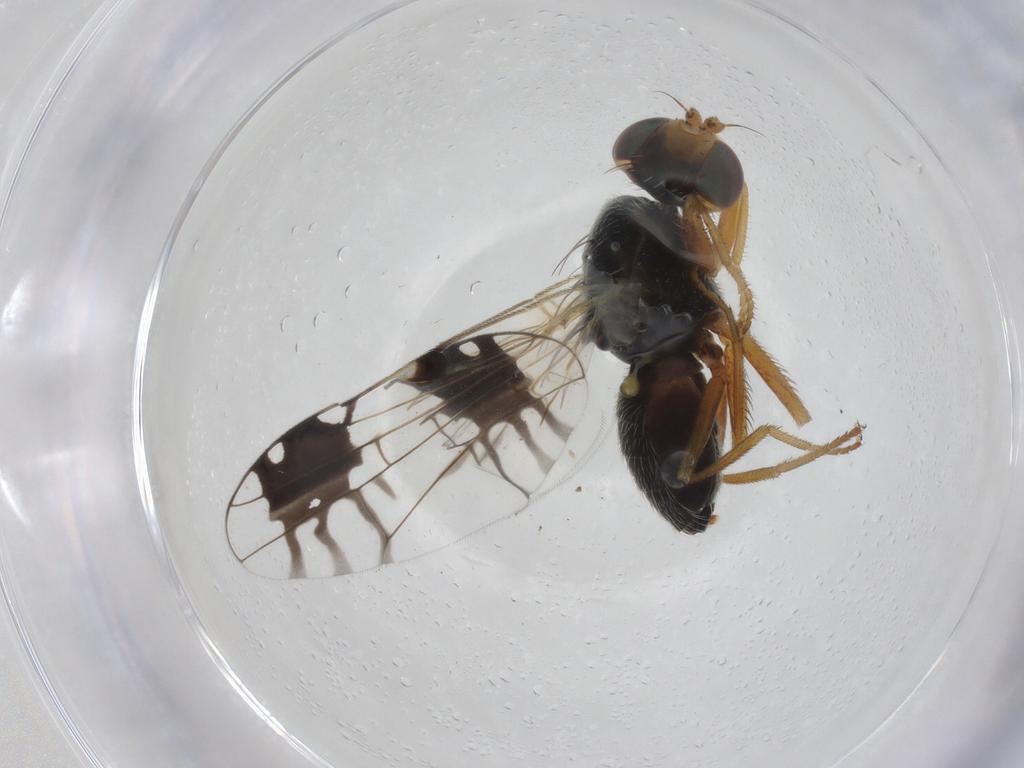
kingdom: Animalia
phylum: Arthropoda
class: Insecta
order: Diptera
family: Tephritidae
